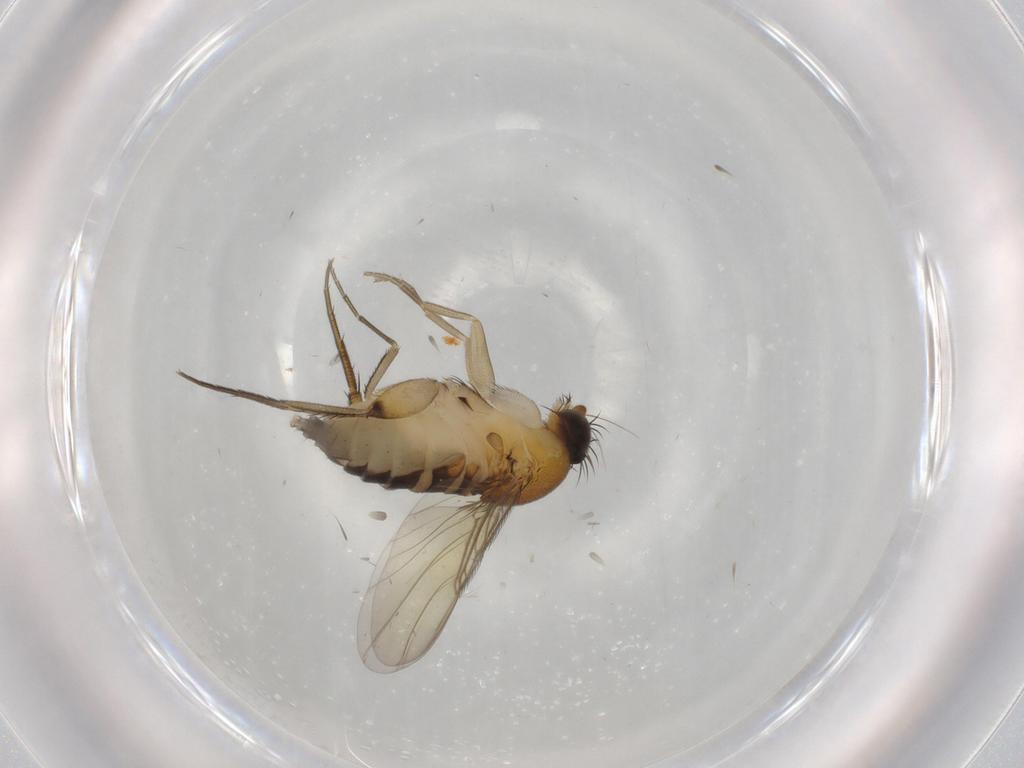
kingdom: Animalia
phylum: Arthropoda
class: Insecta
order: Diptera
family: Phoridae
